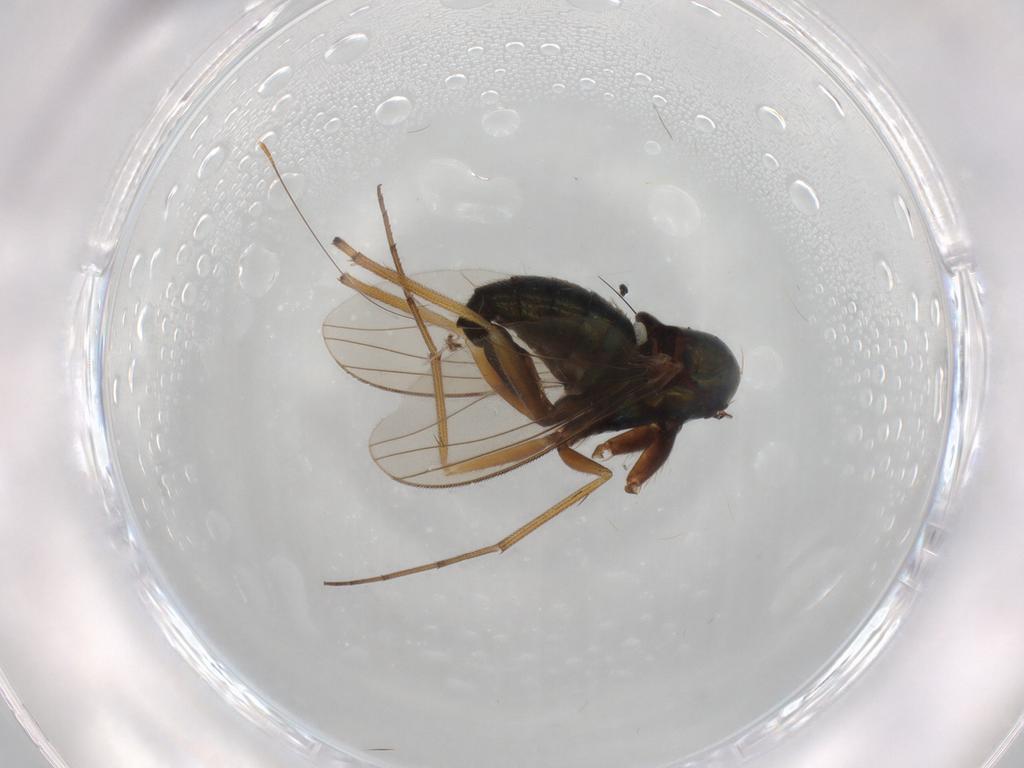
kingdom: Animalia
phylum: Arthropoda
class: Insecta
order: Diptera
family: Dolichopodidae
